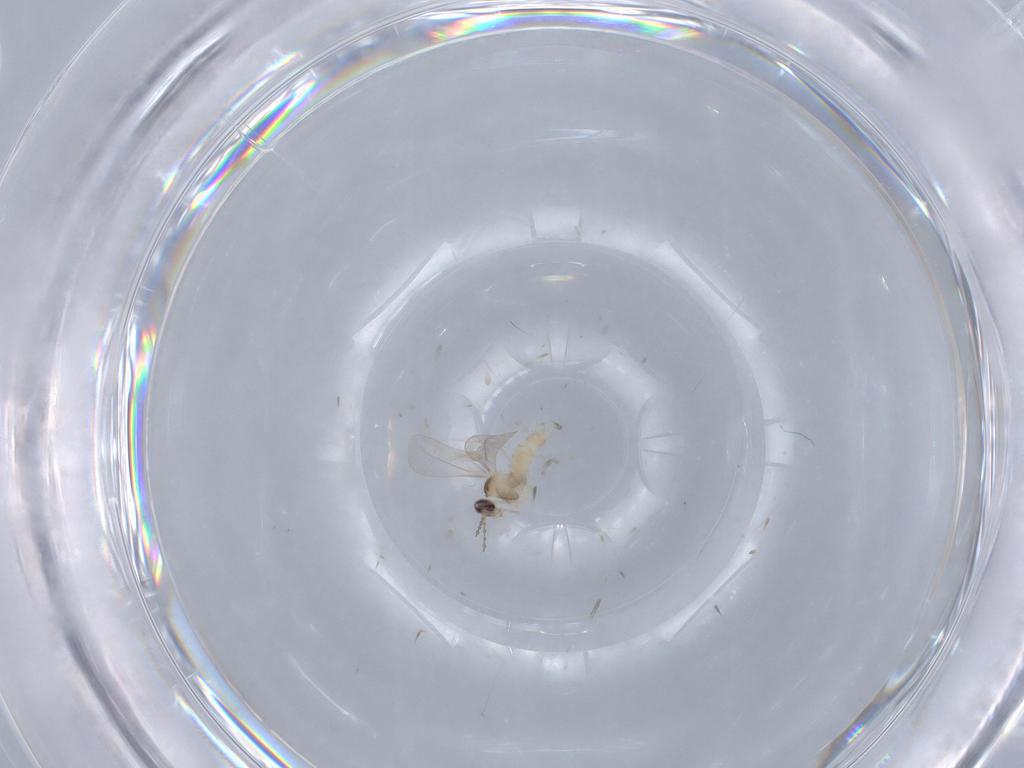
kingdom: Animalia
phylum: Arthropoda
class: Insecta
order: Diptera
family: Cecidomyiidae
